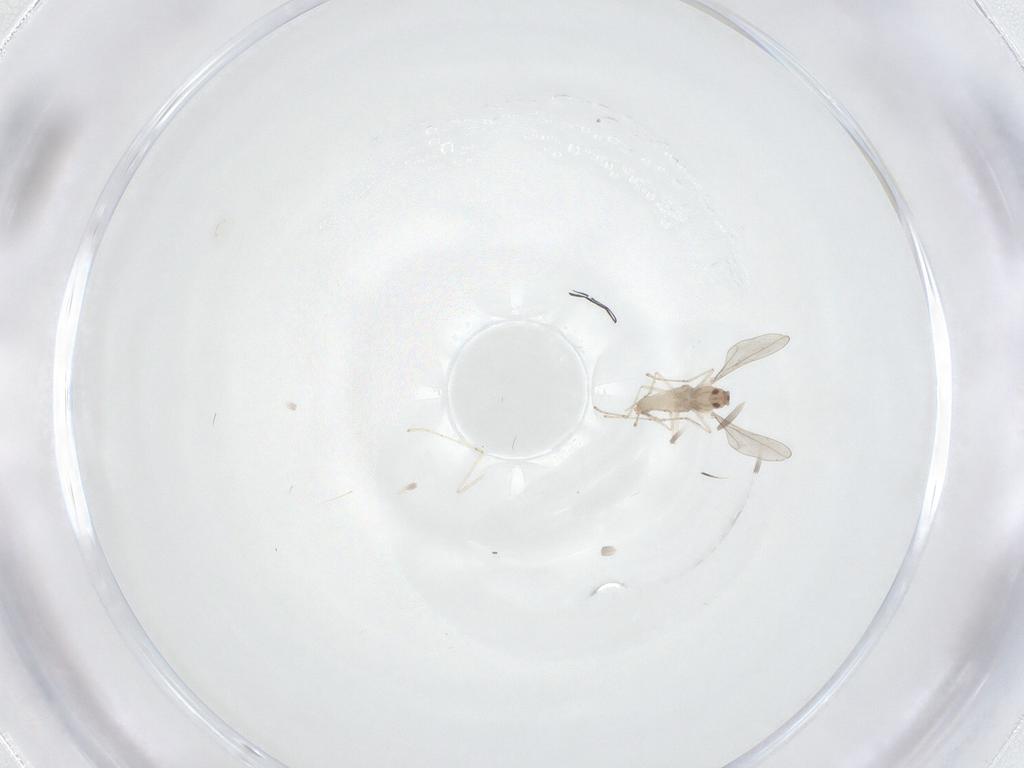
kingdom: Animalia
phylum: Arthropoda
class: Insecta
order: Diptera
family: Cecidomyiidae
